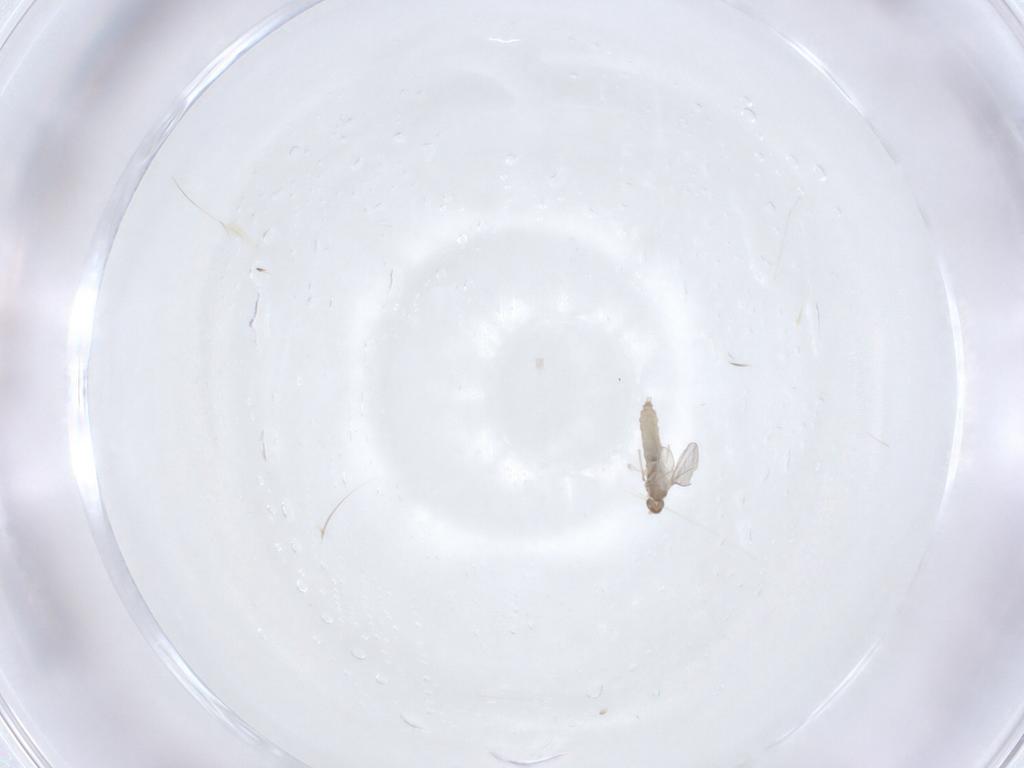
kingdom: Animalia
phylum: Arthropoda
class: Insecta
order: Diptera
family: Cecidomyiidae
